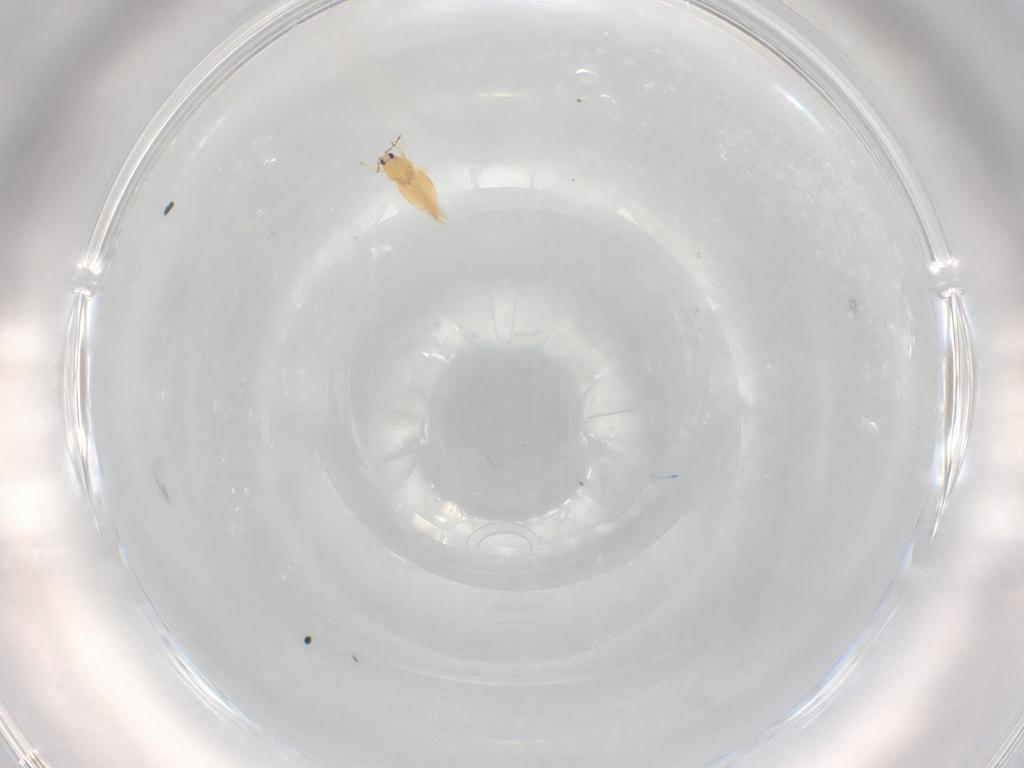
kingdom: Animalia
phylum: Arthropoda
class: Insecta
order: Thysanoptera
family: Thripidae
